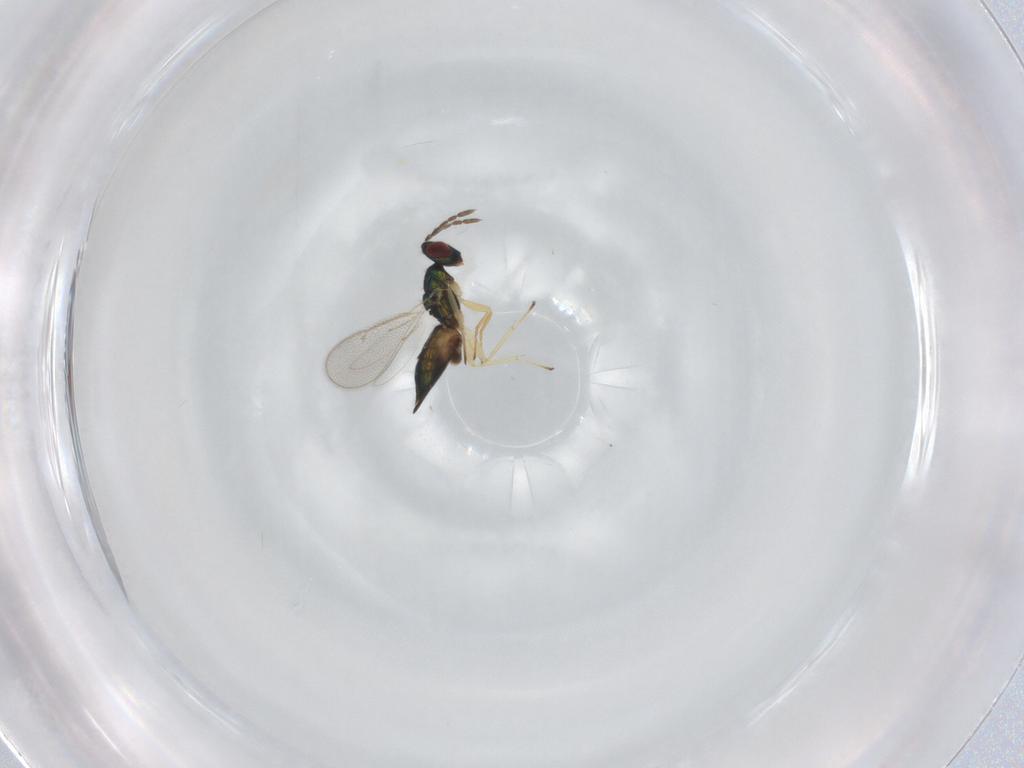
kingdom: Animalia
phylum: Arthropoda
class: Insecta
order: Hymenoptera
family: Eulophidae
